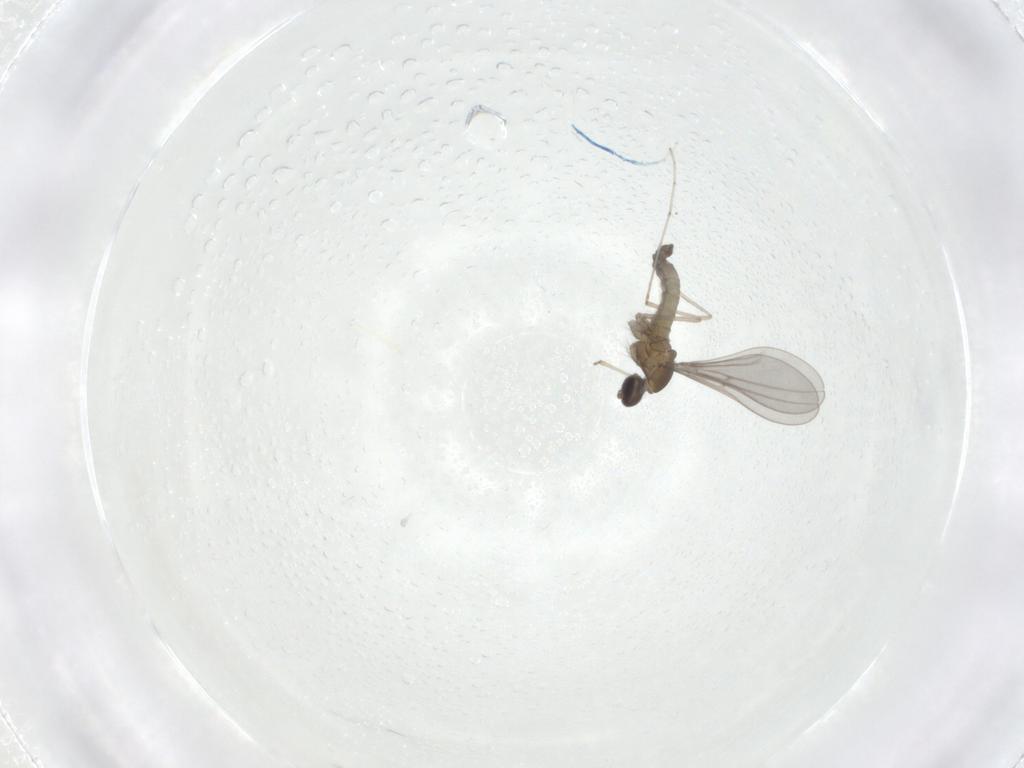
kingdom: Animalia
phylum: Arthropoda
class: Insecta
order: Diptera
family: Psychodidae
